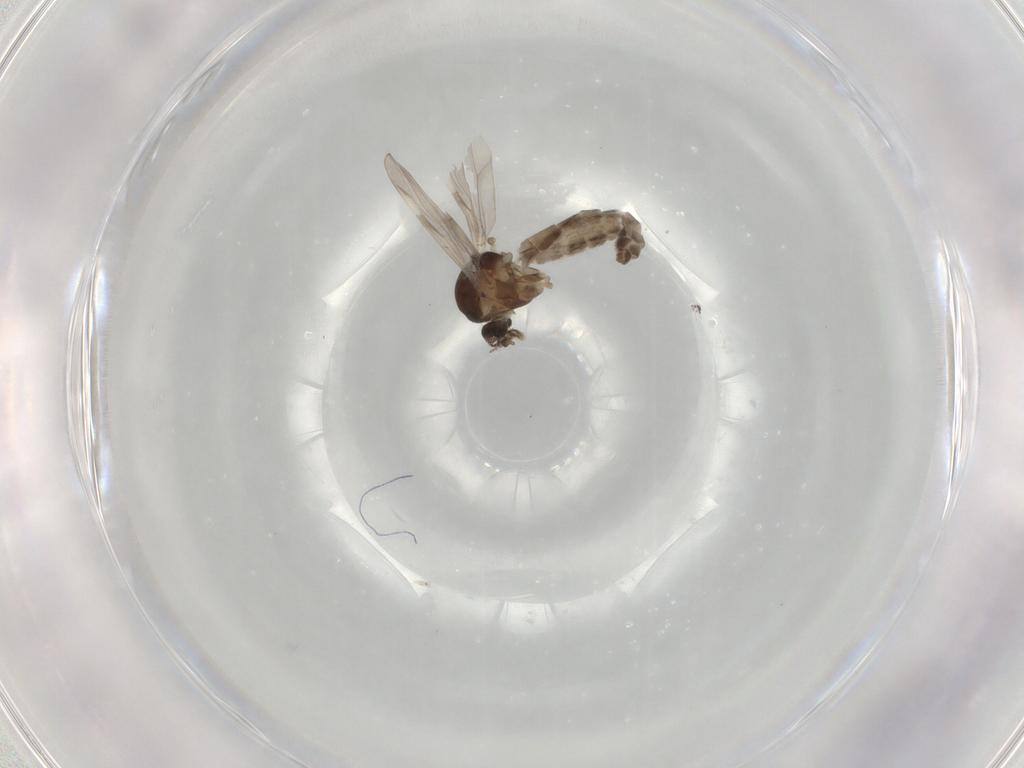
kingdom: Animalia
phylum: Arthropoda
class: Insecta
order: Diptera
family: Ceratopogonidae
